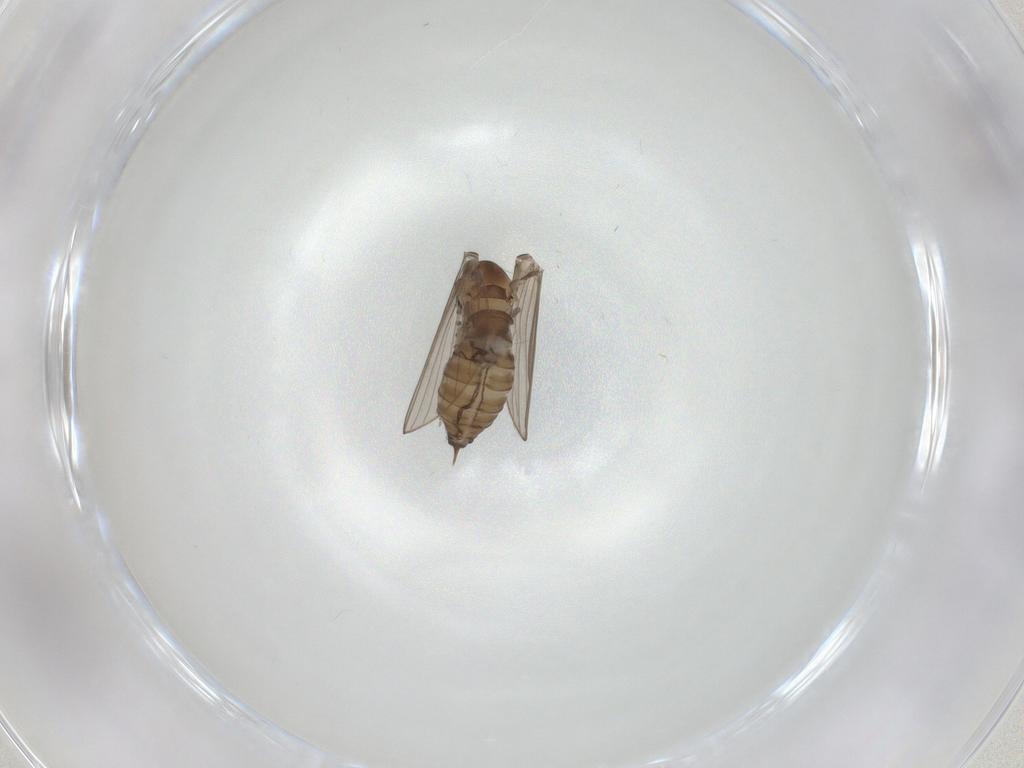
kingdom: Animalia
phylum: Arthropoda
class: Insecta
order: Diptera
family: Psychodidae
